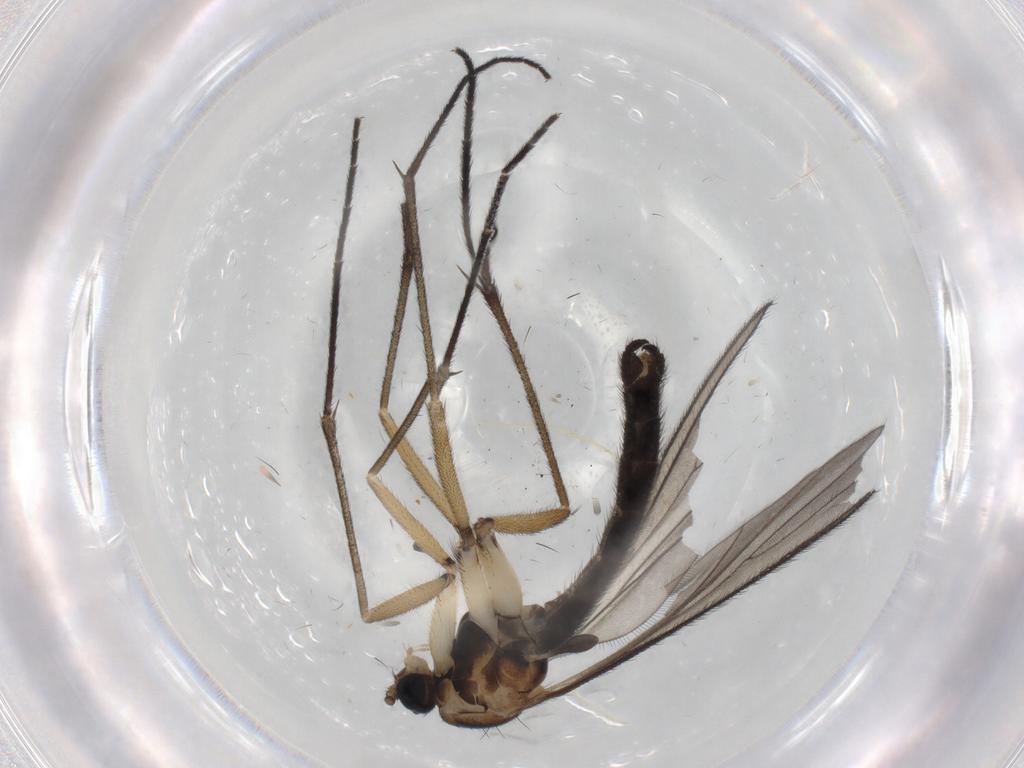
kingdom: Animalia
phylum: Arthropoda
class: Insecta
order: Diptera
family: Sciaridae
